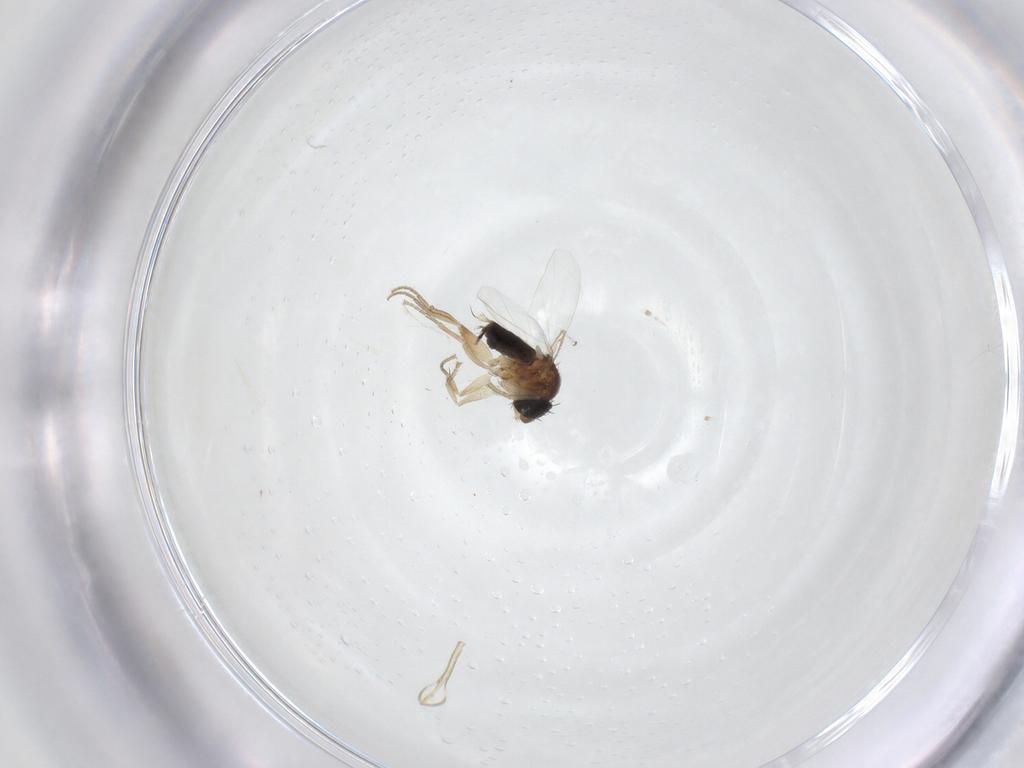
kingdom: Animalia
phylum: Arthropoda
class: Insecta
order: Diptera
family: Phoridae
